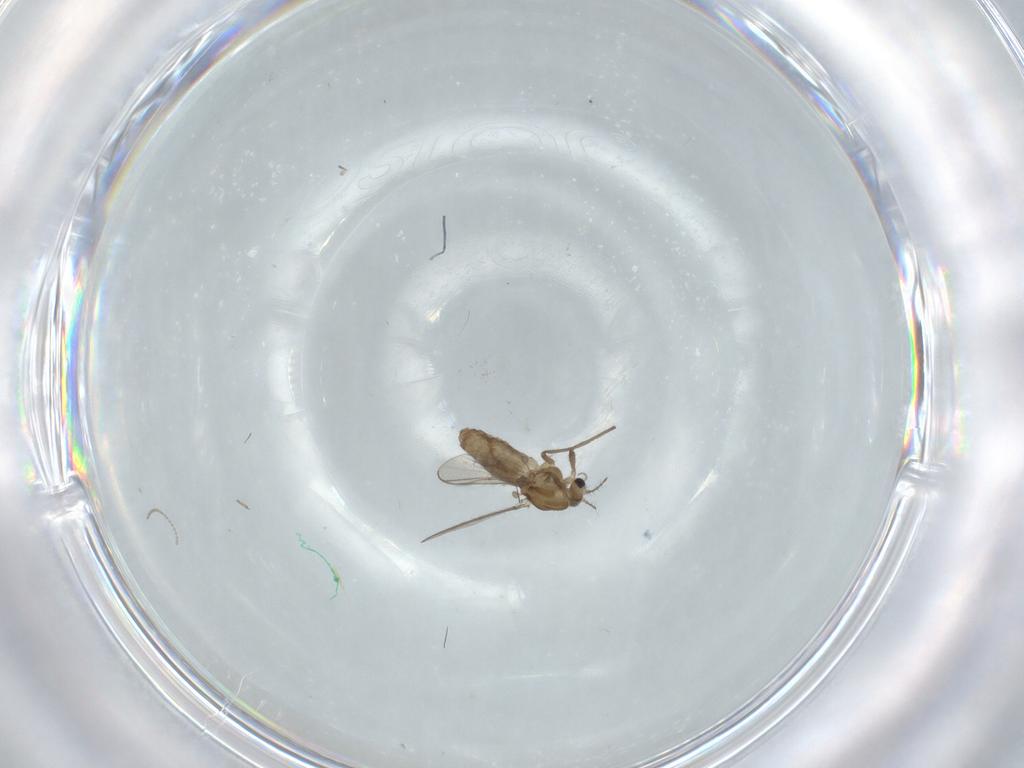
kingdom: Animalia
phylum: Arthropoda
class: Insecta
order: Diptera
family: Chironomidae
